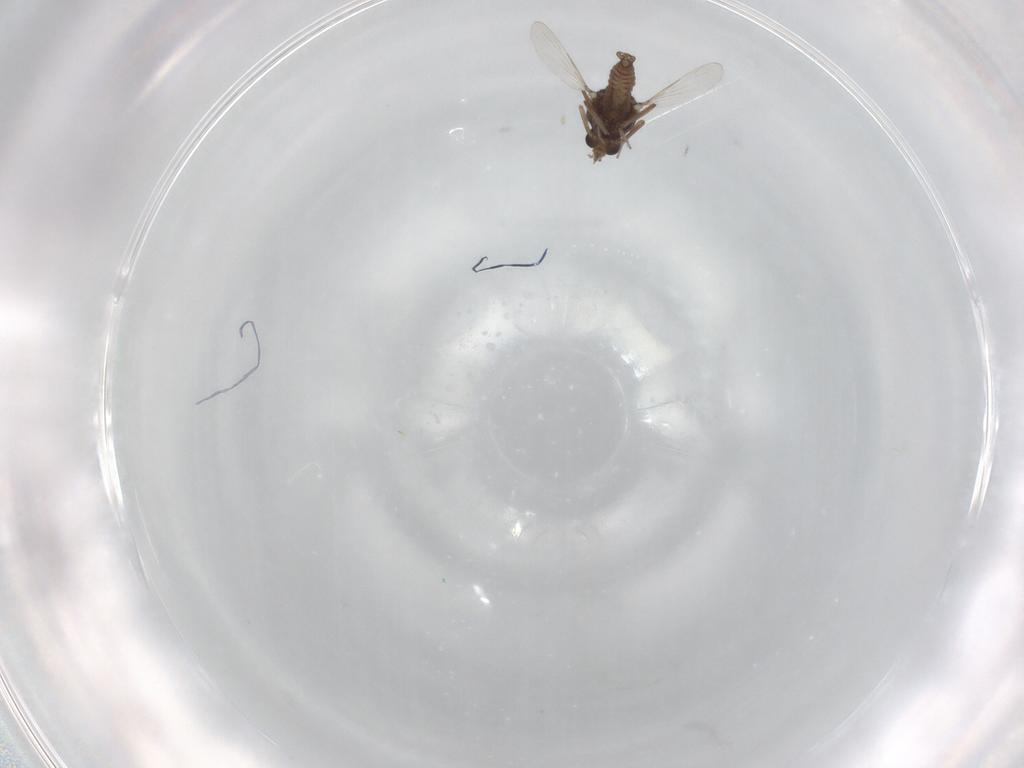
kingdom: Animalia
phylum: Arthropoda
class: Insecta
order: Diptera
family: Ceratopogonidae
